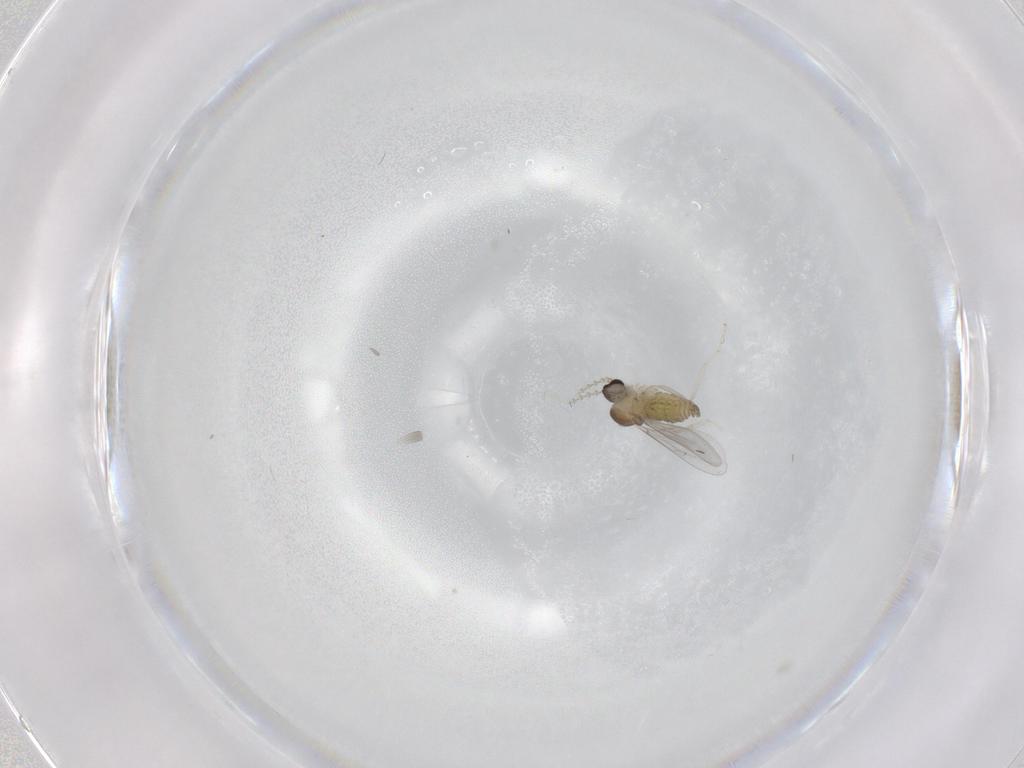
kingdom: Animalia
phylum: Arthropoda
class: Insecta
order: Diptera
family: Cecidomyiidae
